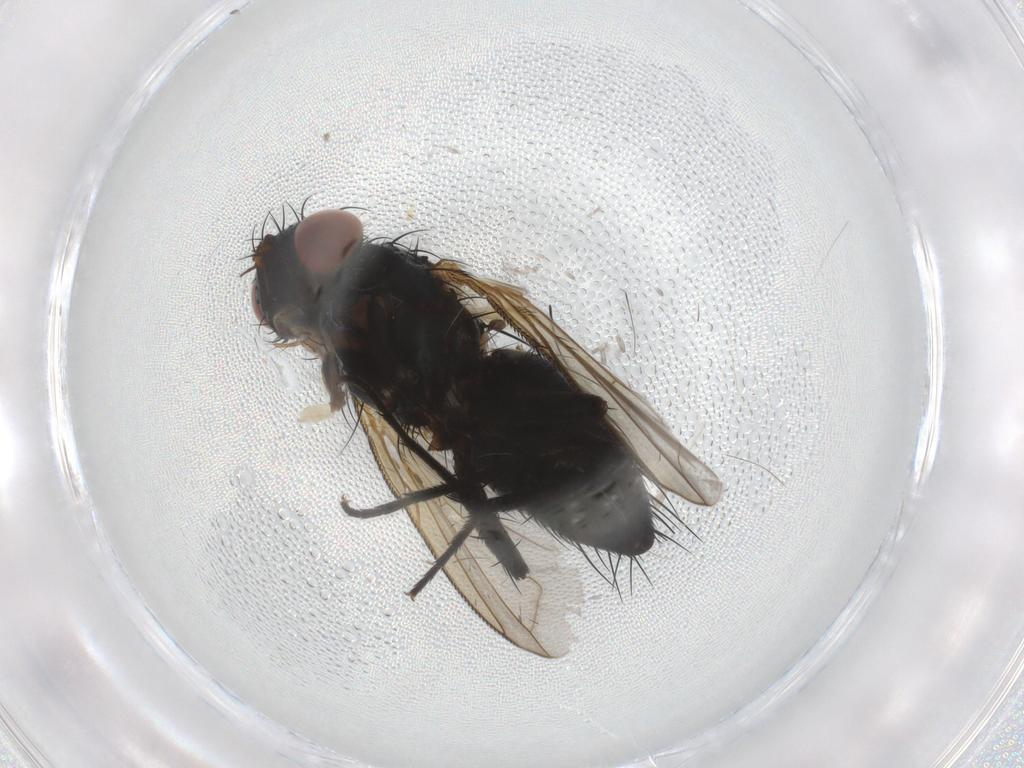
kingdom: Animalia
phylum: Arthropoda
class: Insecta
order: Diptera
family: Tachinidae
